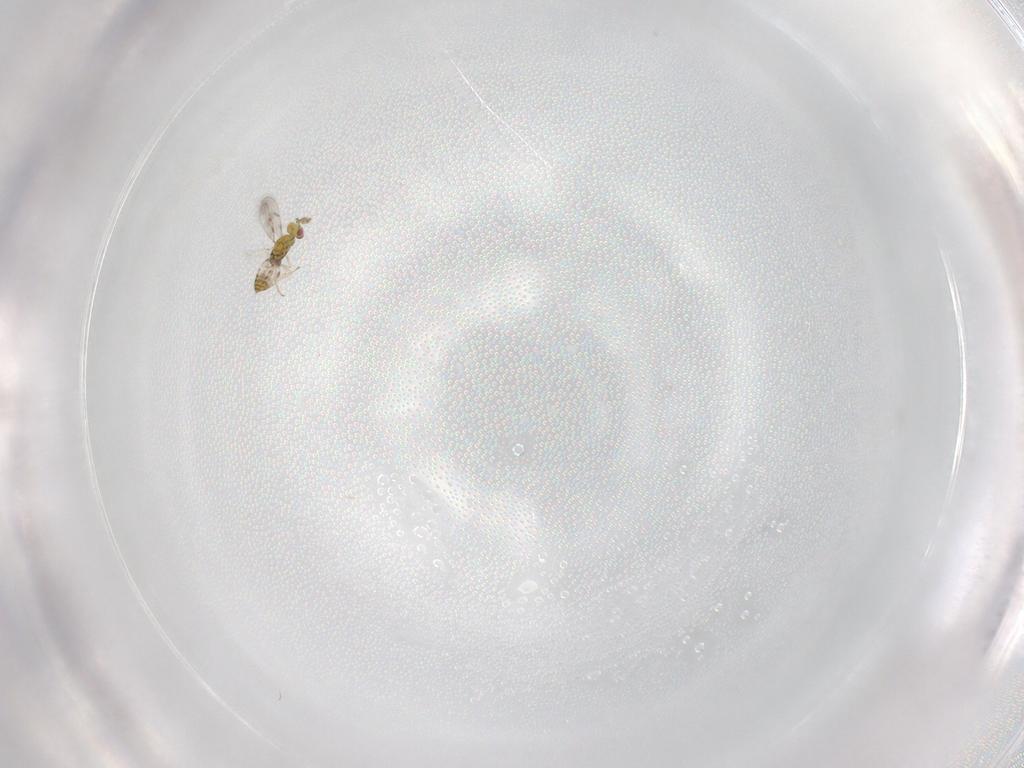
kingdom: Animalia
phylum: Arthropoda
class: Insecta
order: Hymenoptera
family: Eulophidae
